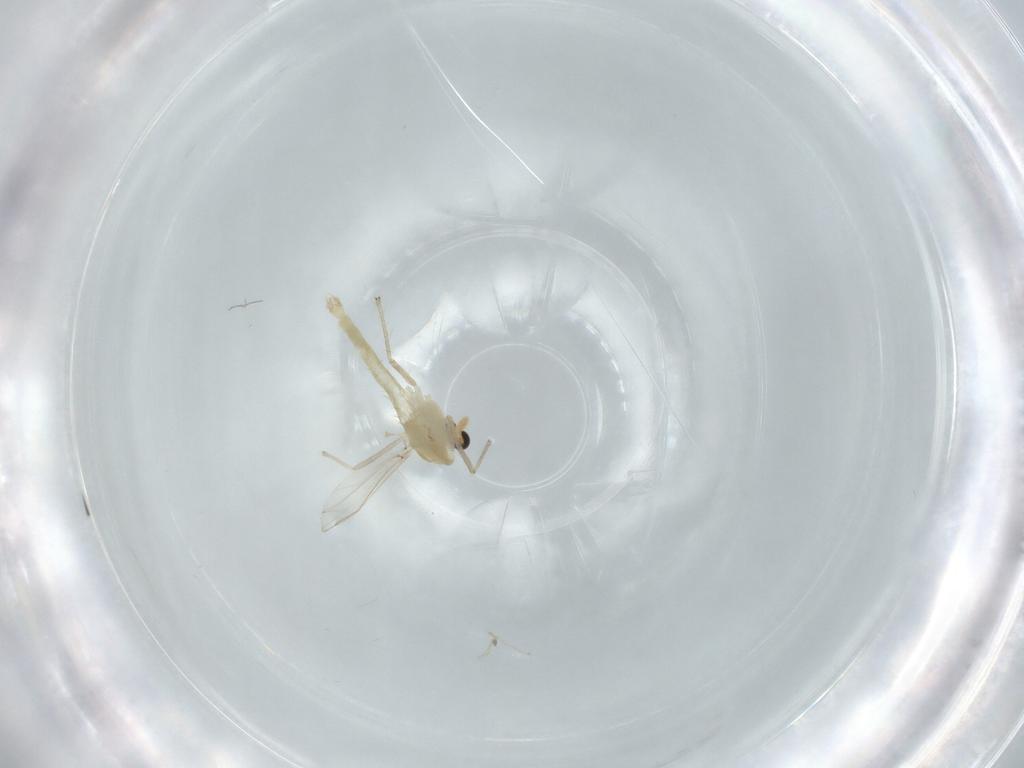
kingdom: Animalia
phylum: Arthropoda
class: Insecta
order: Diptera
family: Chironomidae
